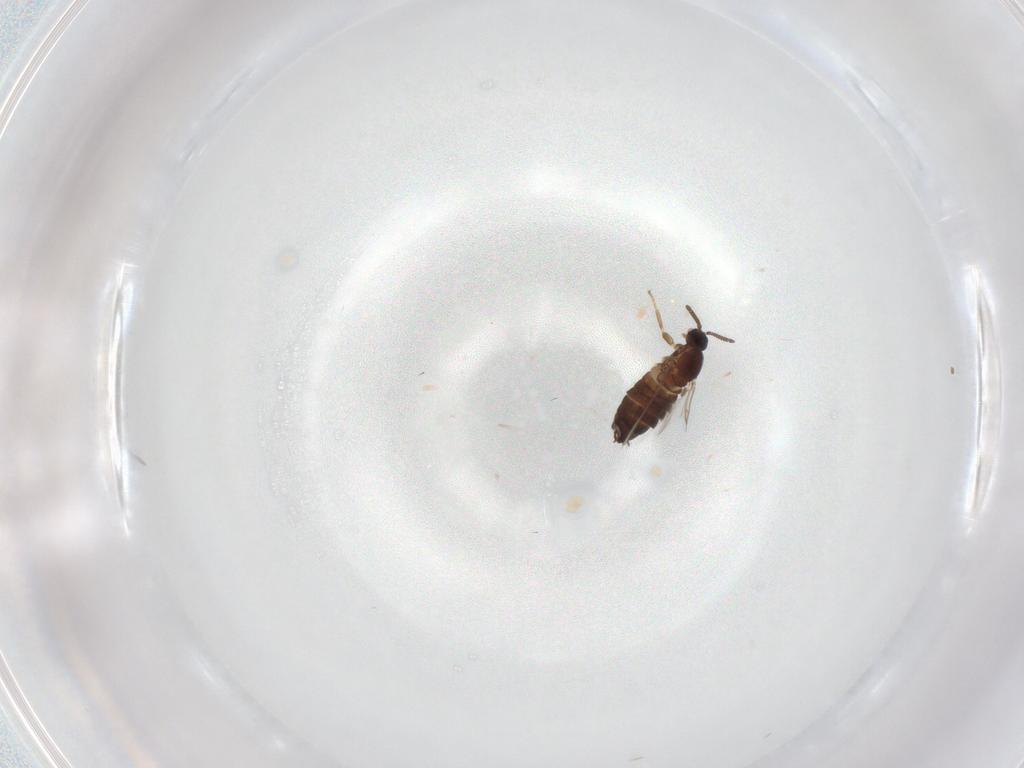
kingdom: Animalia
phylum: Arthropoda
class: Insecta
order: Diptera
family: Scatopsidae
